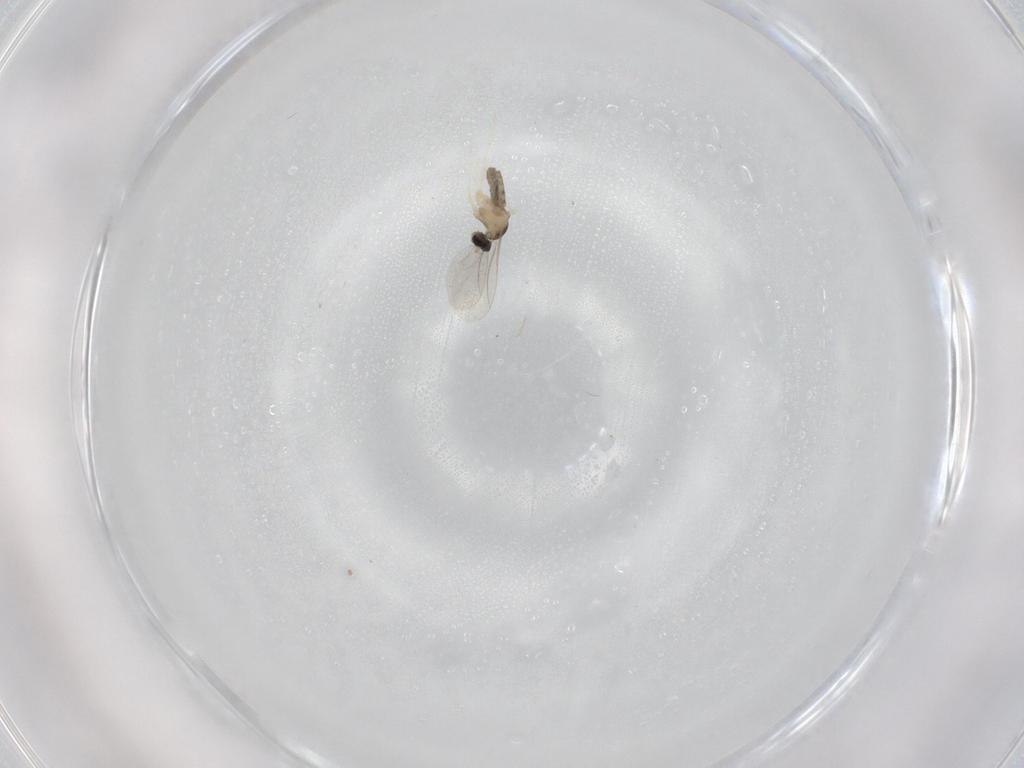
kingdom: Animalia
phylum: Arthropoda
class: Insecta
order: Diptera
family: Cecidomyiidae
